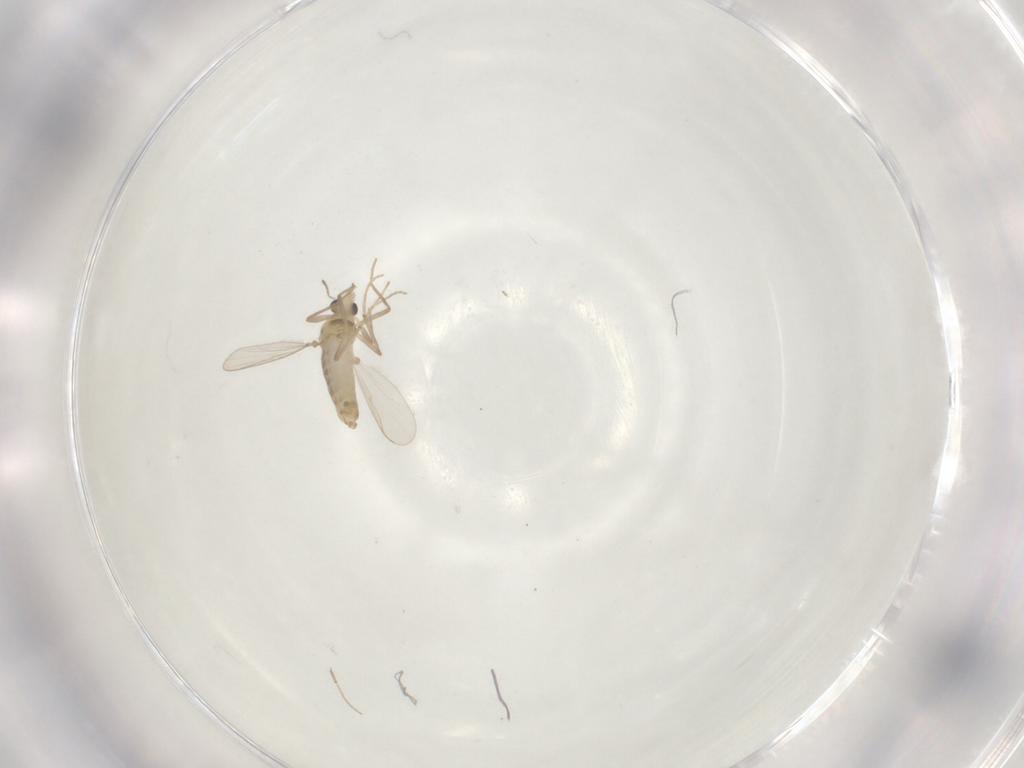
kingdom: Animalia
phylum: Arthropoda
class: Insecta
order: Diptera
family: Chironomidae
